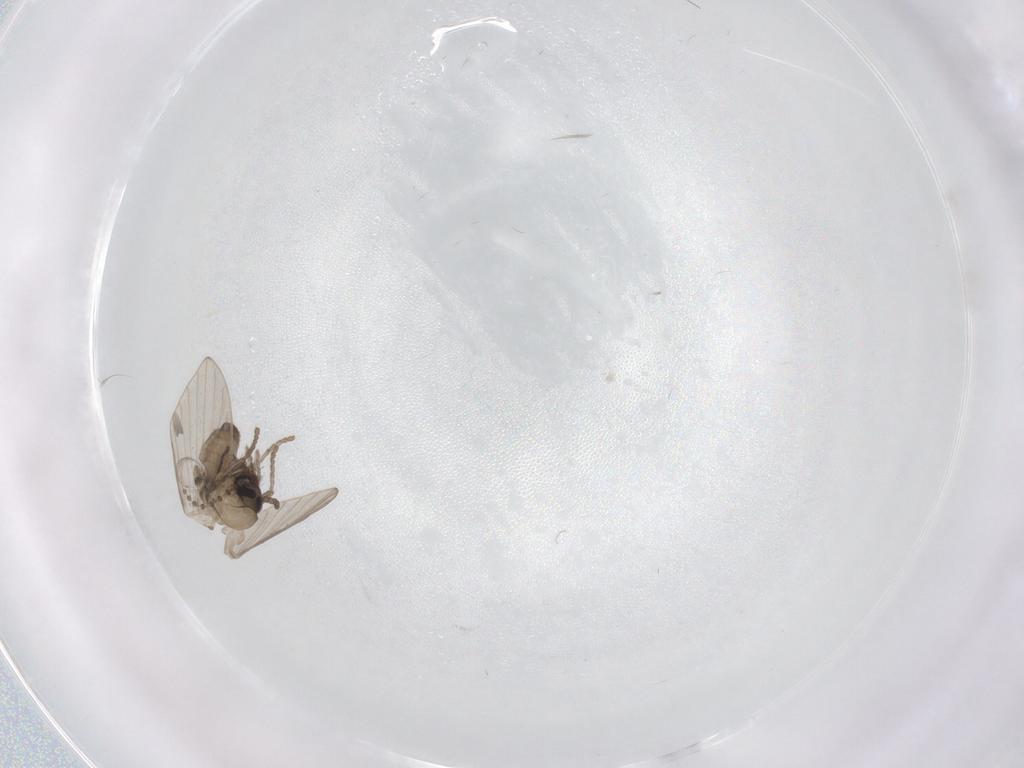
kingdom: Animalia
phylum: Arthropoda
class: Insecta
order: Diptera
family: Psychodidae
